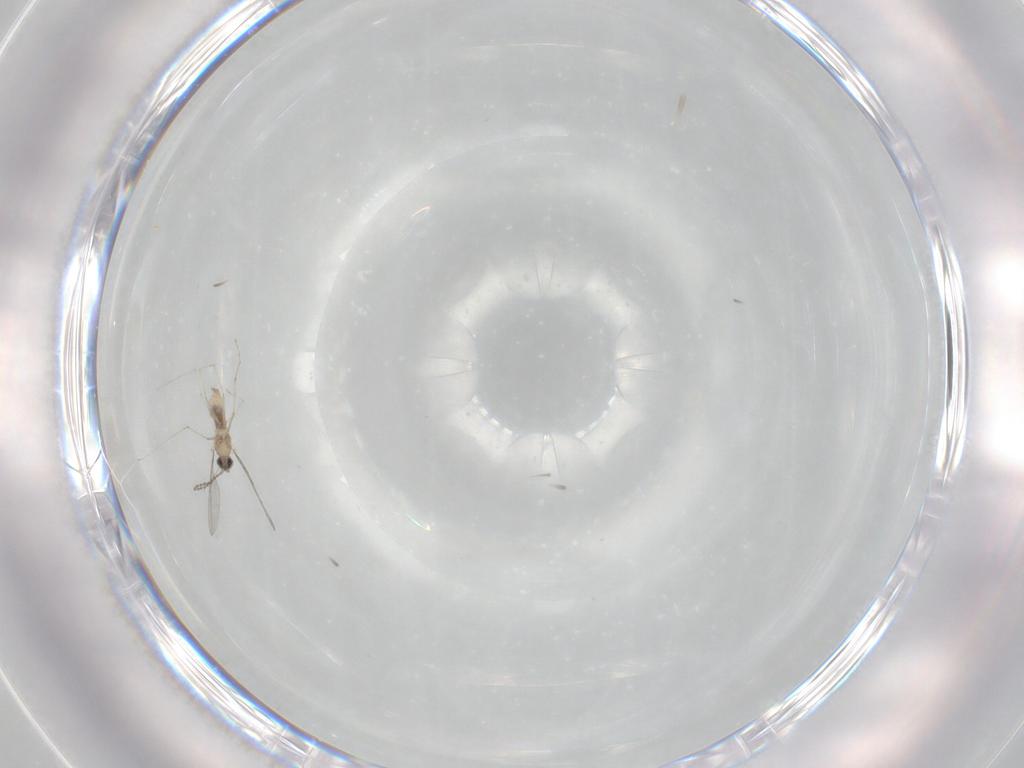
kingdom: Animalia
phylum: Arthropoda
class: Insecta
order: Diptera
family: Cecidomyiidae
